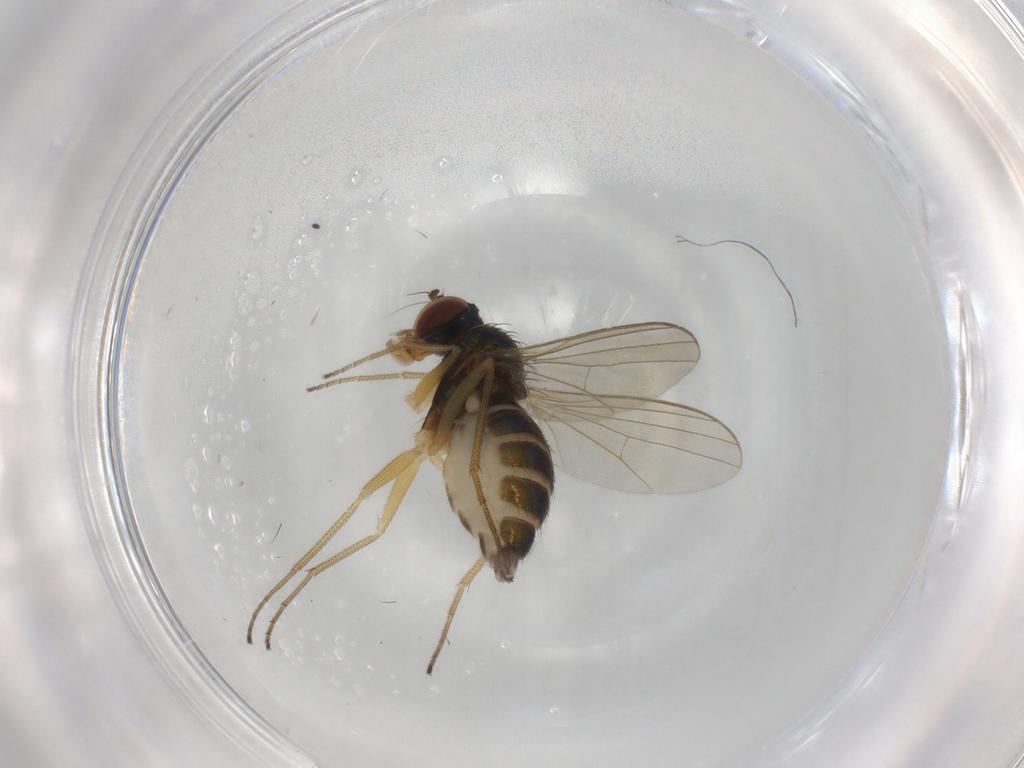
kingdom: Animalia
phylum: Arthropoda
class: Insecta
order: Diptera
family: Dolichopodidae
